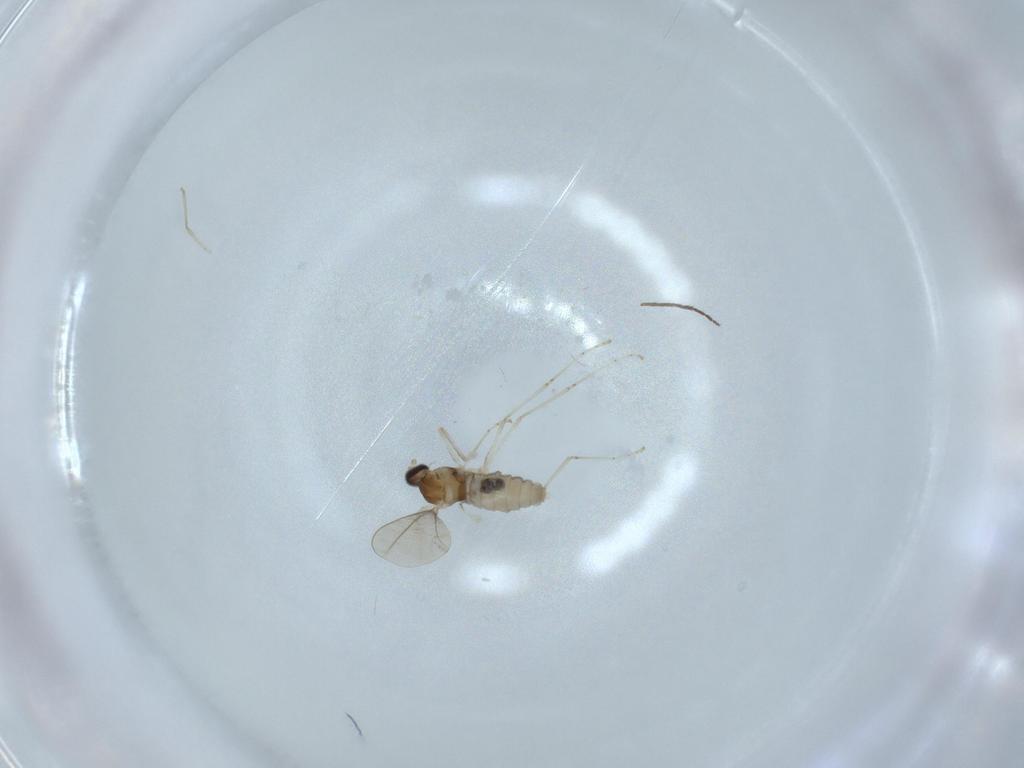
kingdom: Animalia
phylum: Arthropoda
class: Insecta
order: Diptera
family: Cecidomyiidae
